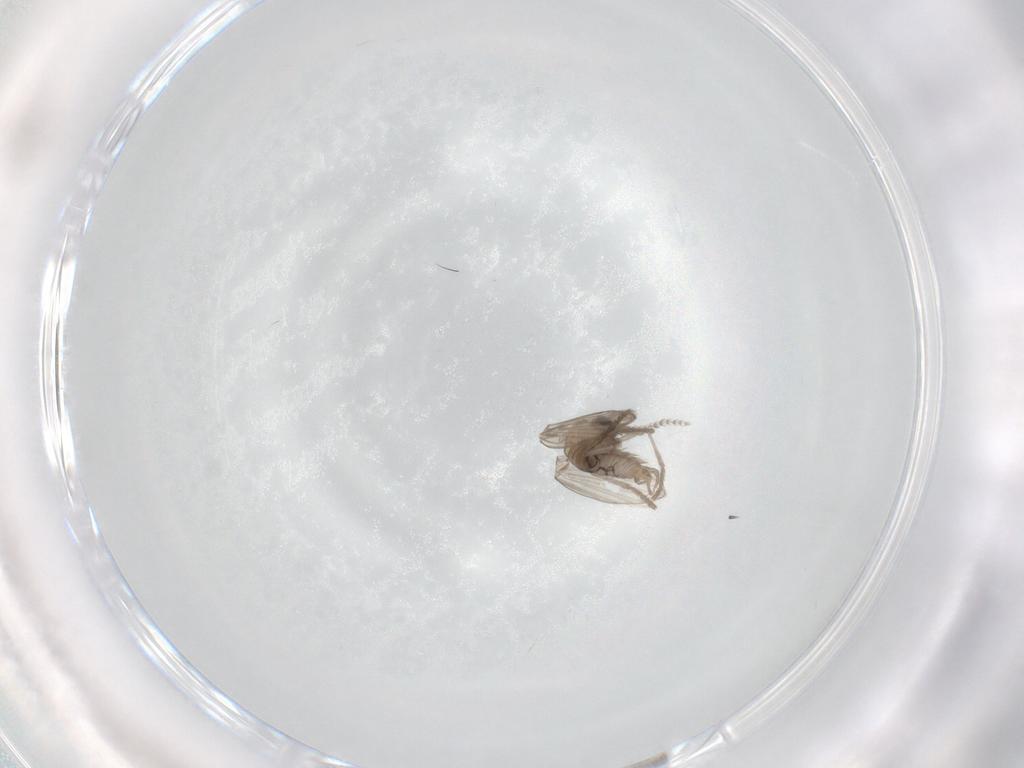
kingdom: Animalia
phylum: Arthropoda
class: Insecta
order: Diptera
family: Psychodidae
